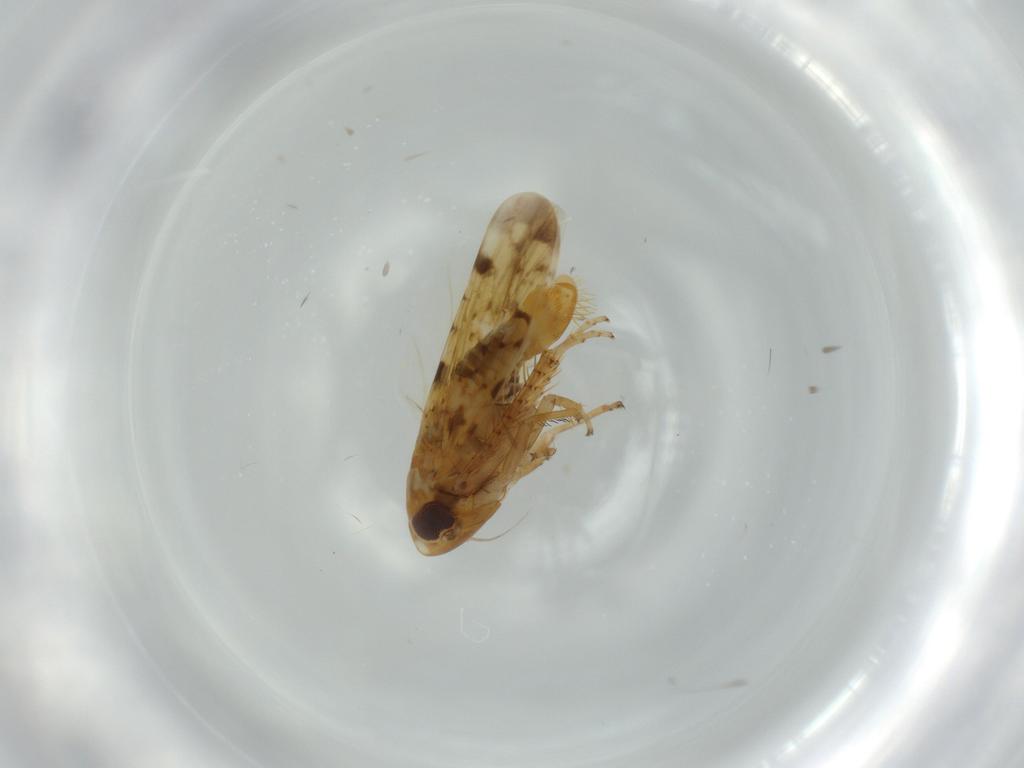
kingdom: Animalia
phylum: Arthropoda
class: Insecta
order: Hemiptera
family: Cicadellidae
